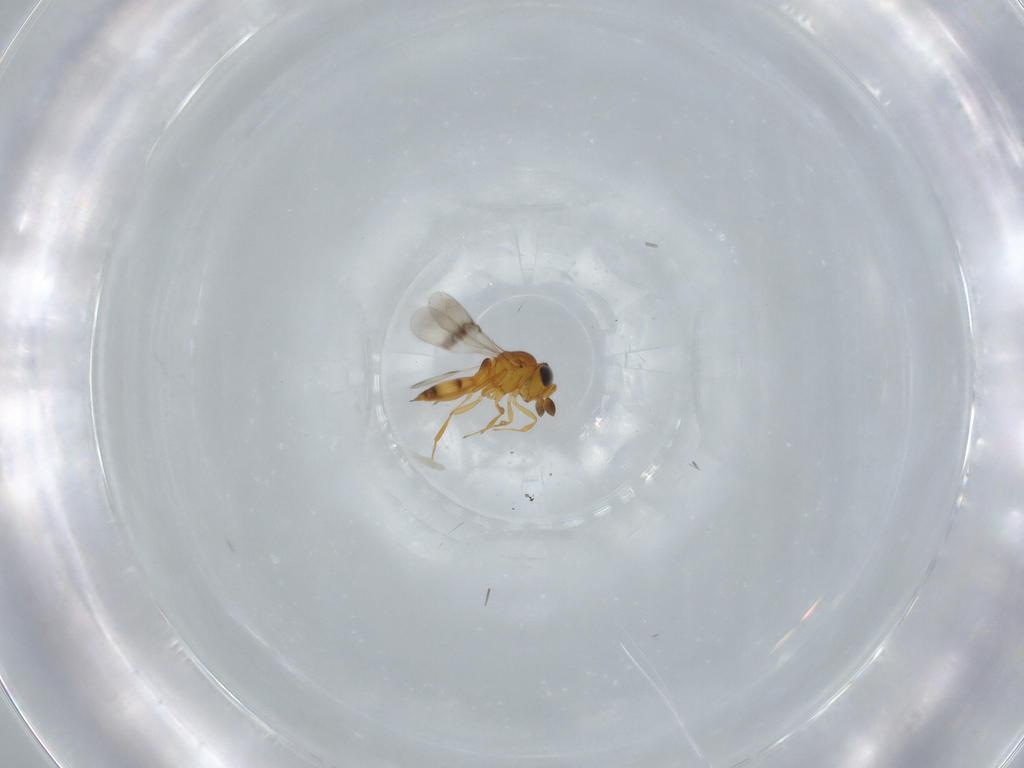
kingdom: Animalia
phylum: Arthropoda
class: Insecta
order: Hymenoptera
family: Scelionidae
